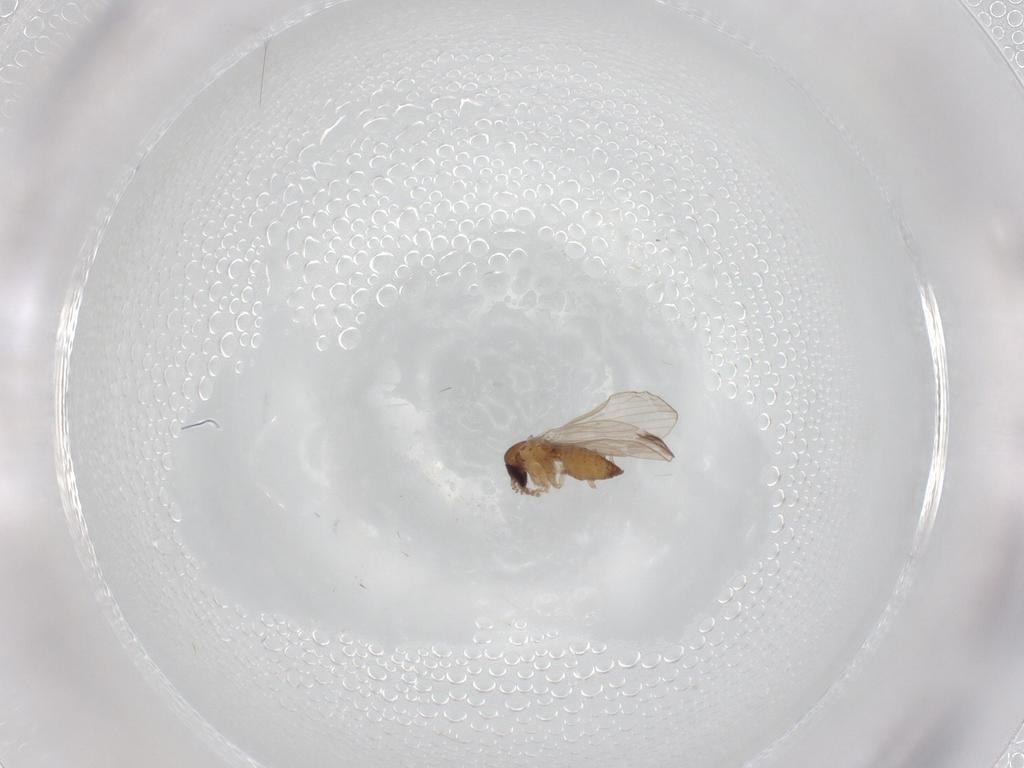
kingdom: Animalia
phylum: Arthropoda
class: Insecta
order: Diptera
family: Psychodidae
